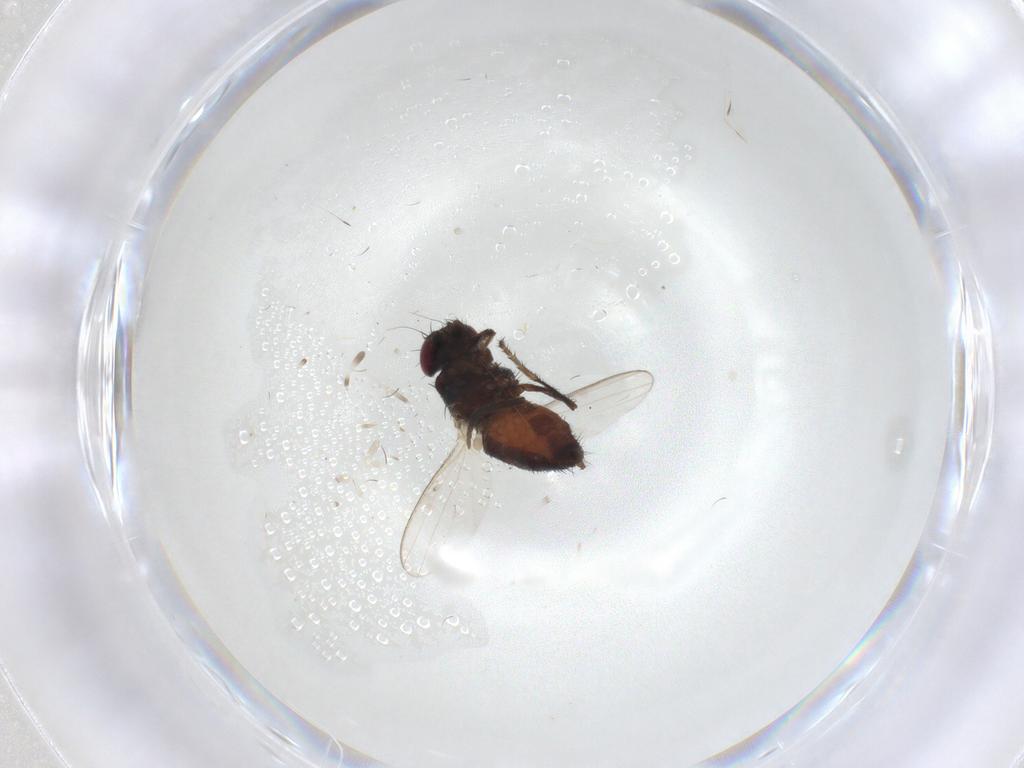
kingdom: Animalia
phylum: Arthropoda
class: Insecta
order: Diptera
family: Milichiidae
